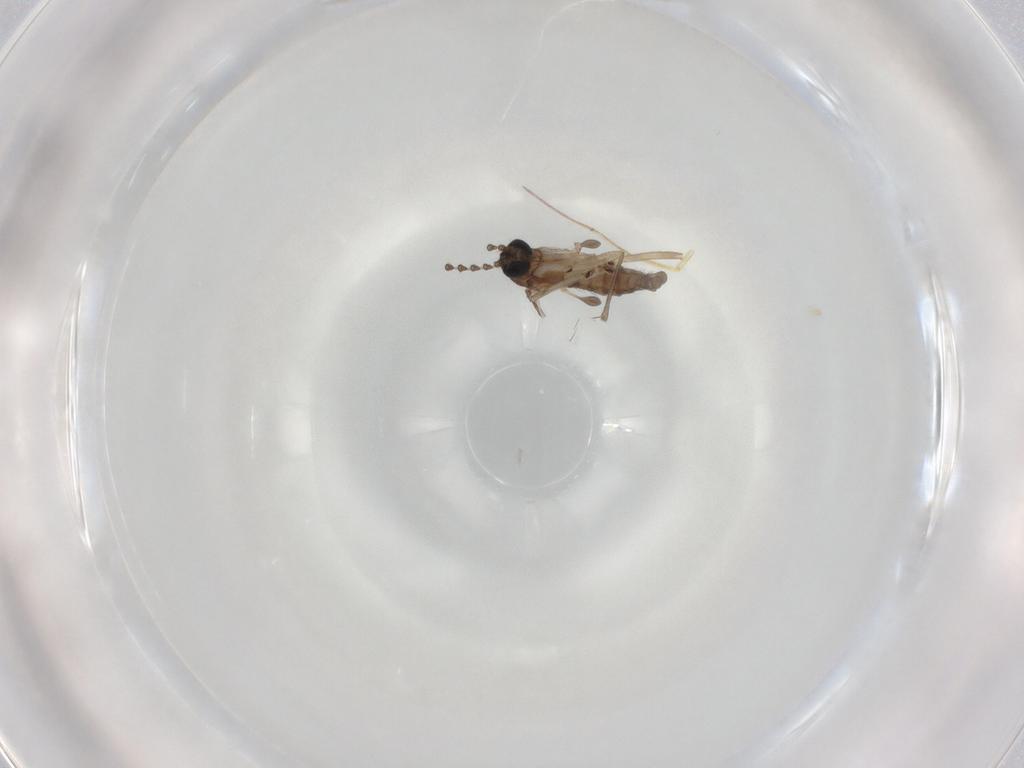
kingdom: Animalia
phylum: Arthropoda
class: Insecta
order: Diptera
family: Sciaridae
